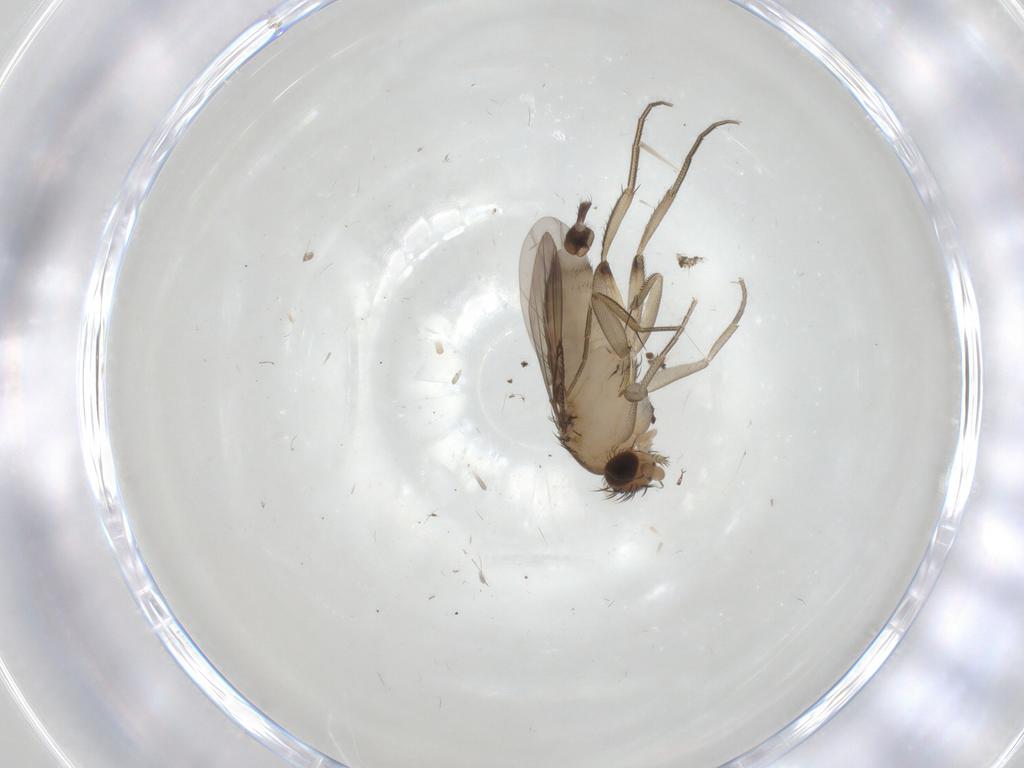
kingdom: Animalia
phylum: Arthropoda
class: Insecta
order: Diptera
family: Phoridae
